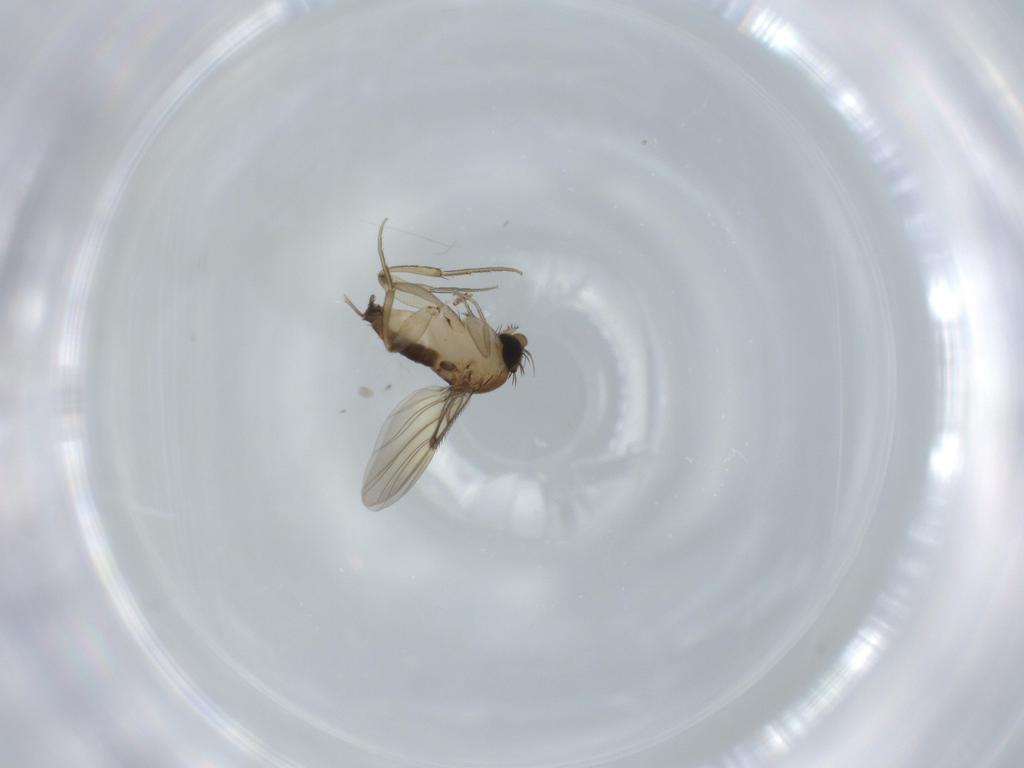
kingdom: Animalia
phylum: Arthropoda
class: Insecta
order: Diptera
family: Phoridae
